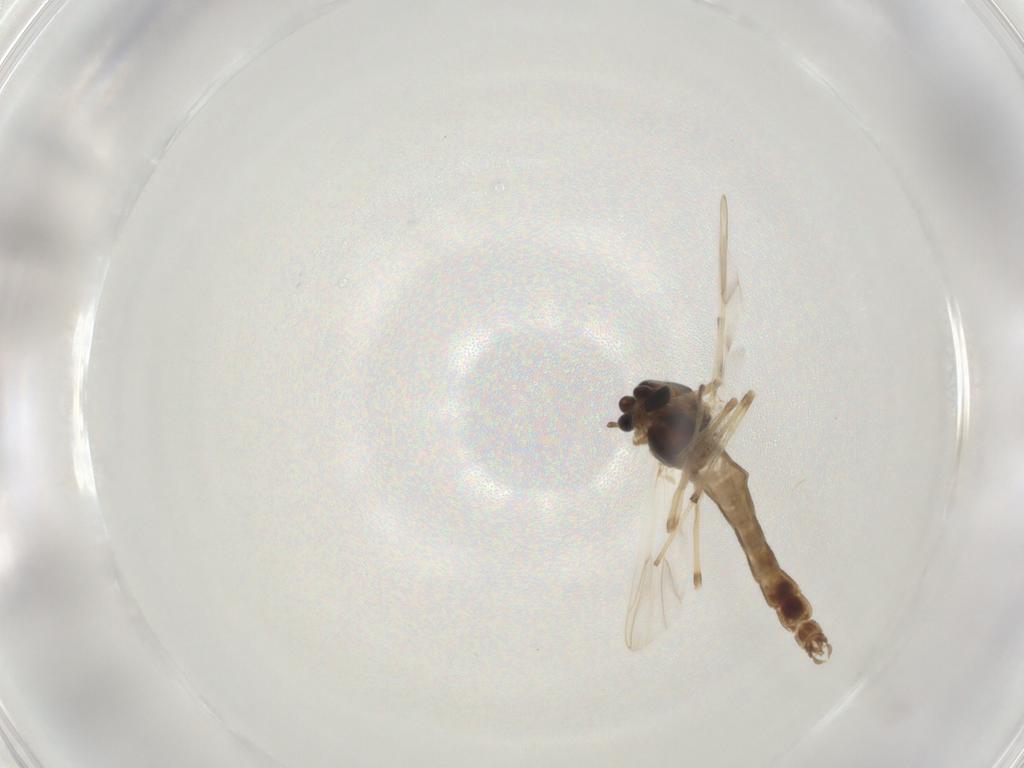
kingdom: Animalia
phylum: Arthropoda
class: Insecta
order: Diptera
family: Chironomidae
